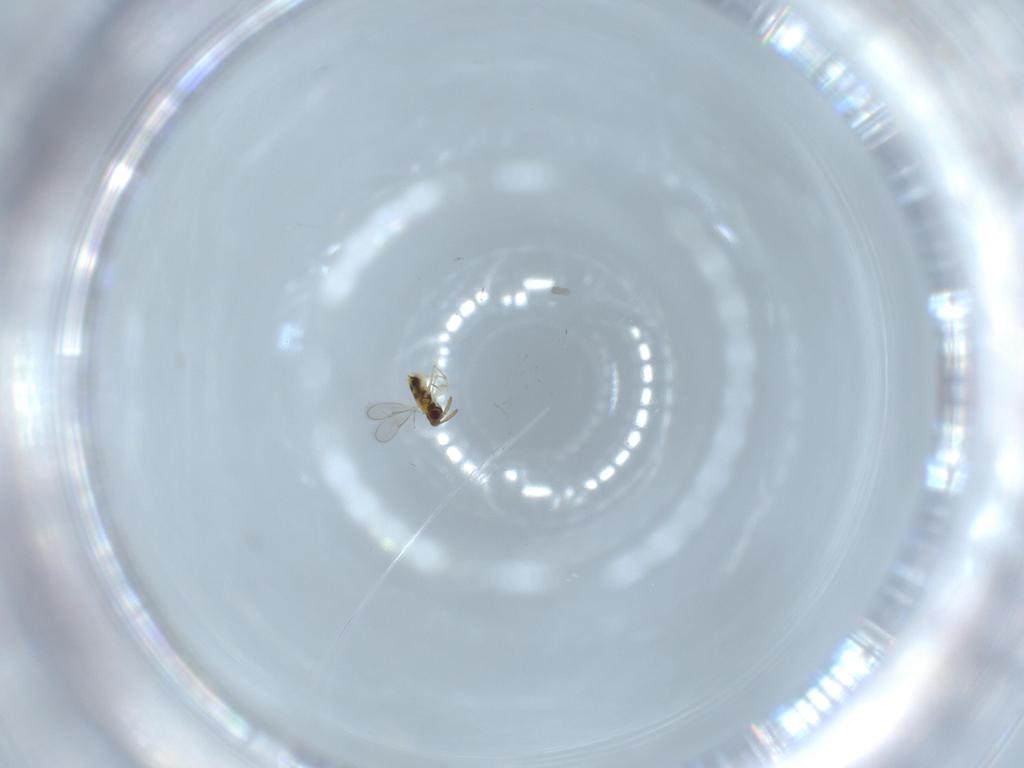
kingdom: Animalia
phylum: Arthropoda
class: Insecta
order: Hymenoptera
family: Aphelinidae
